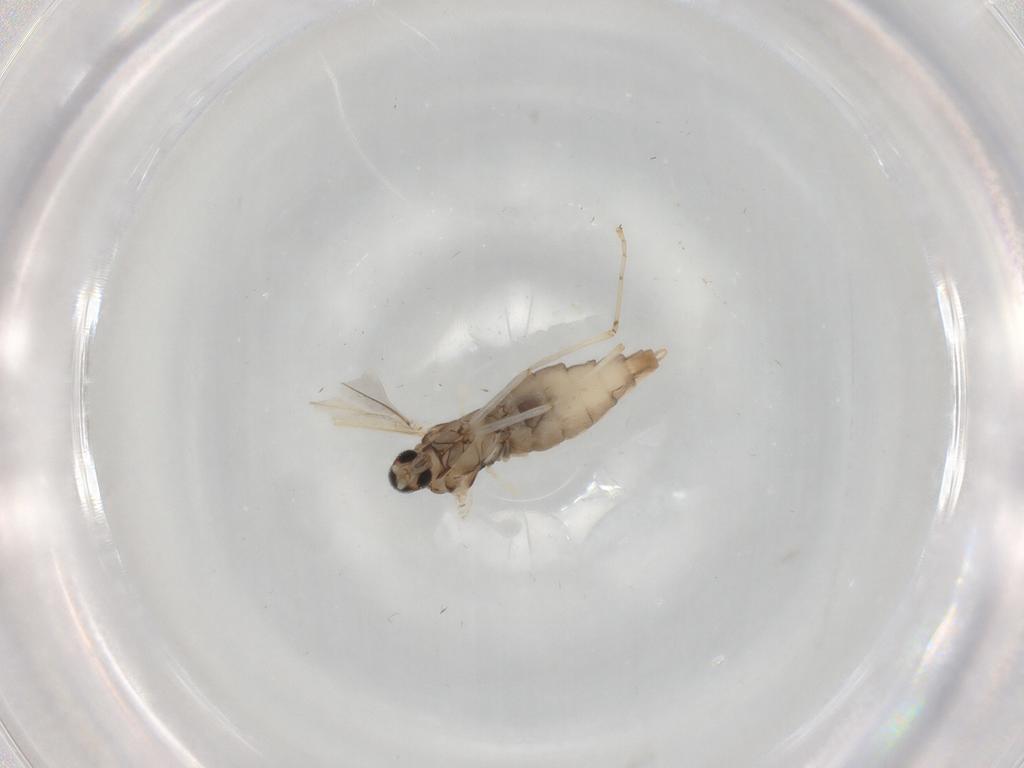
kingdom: Animalia
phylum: Arthropoda
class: Insecta
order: Diptera
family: Cecidomyiidae
